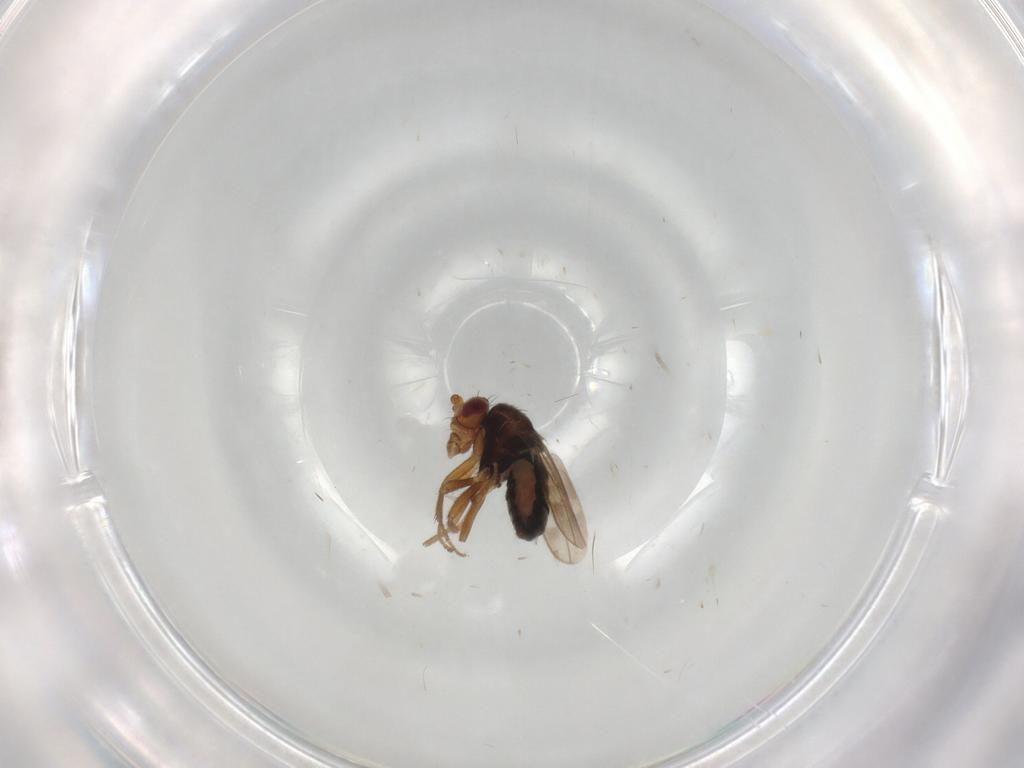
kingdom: Animalia
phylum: Arthropoda
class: Insecta
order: Diptera
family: Sphaeroceridae
